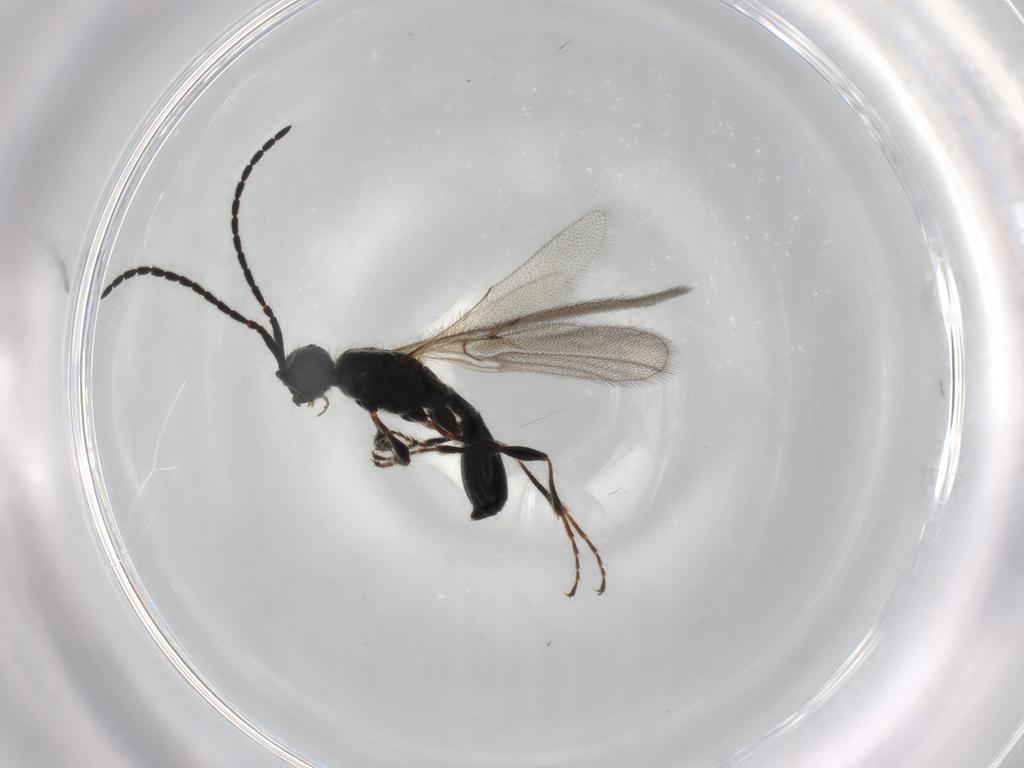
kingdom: Animalia
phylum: Arthropoda
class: Insecta
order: Hymenoptera
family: Diapriidae
